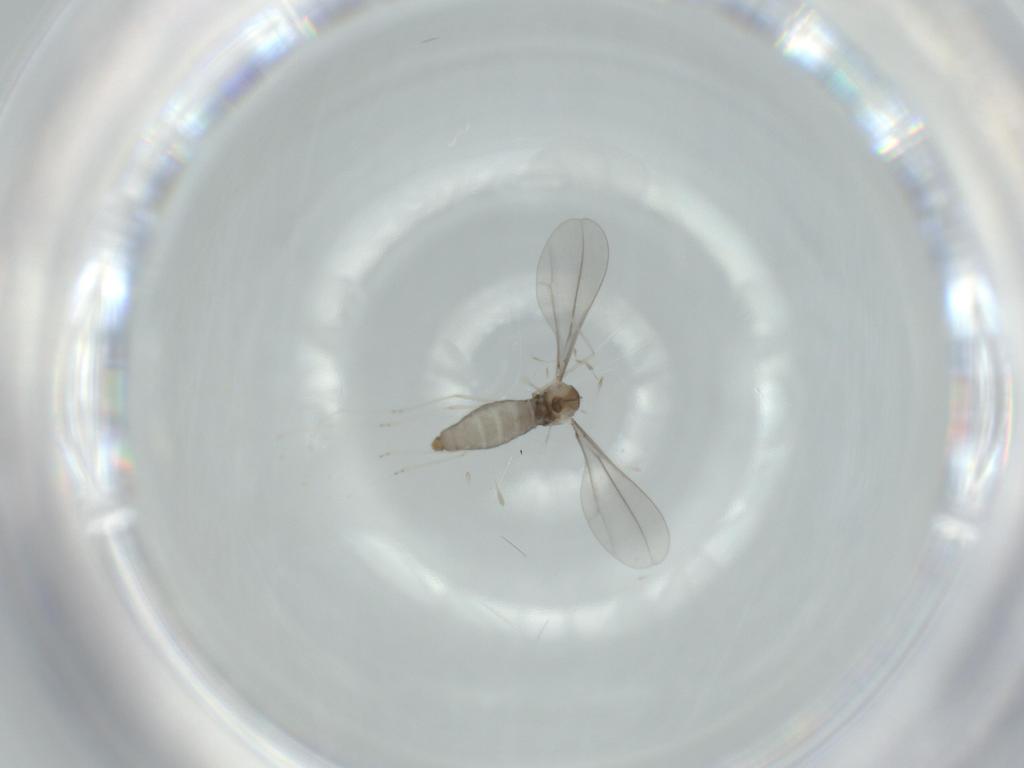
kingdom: Animalia
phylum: Arthropoda
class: Insecta
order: Diptera
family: Cecidomyiidae
